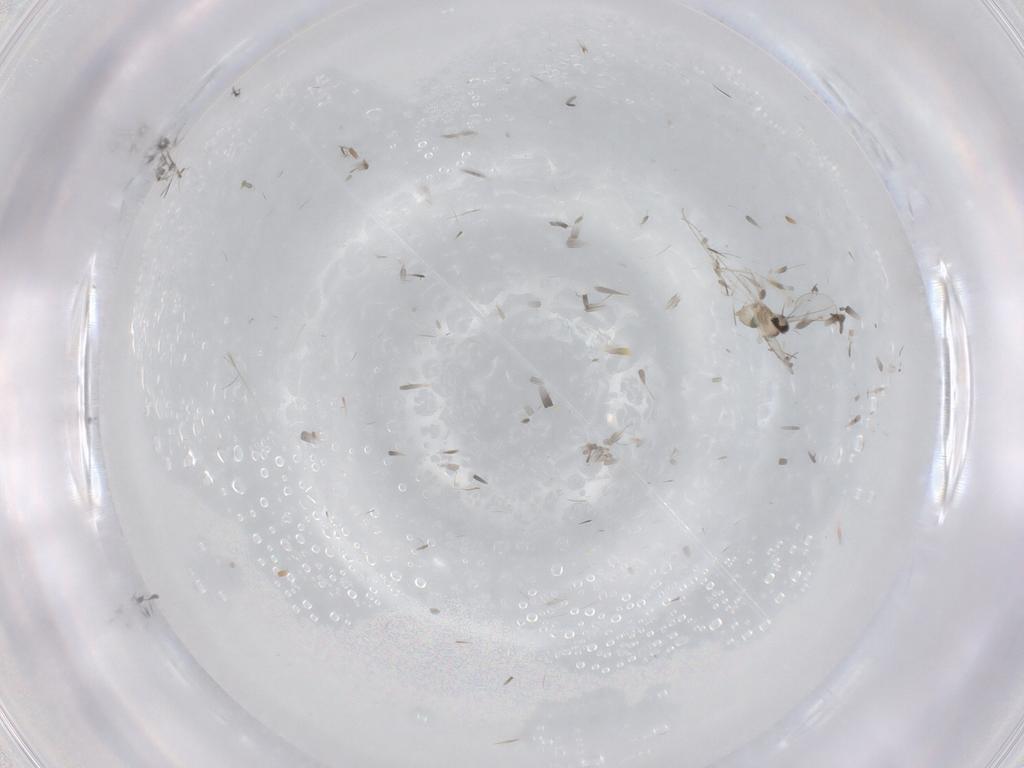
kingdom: Animalia
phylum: Arthropoda
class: Insecta
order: Diptera
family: Cecidomyiidae
